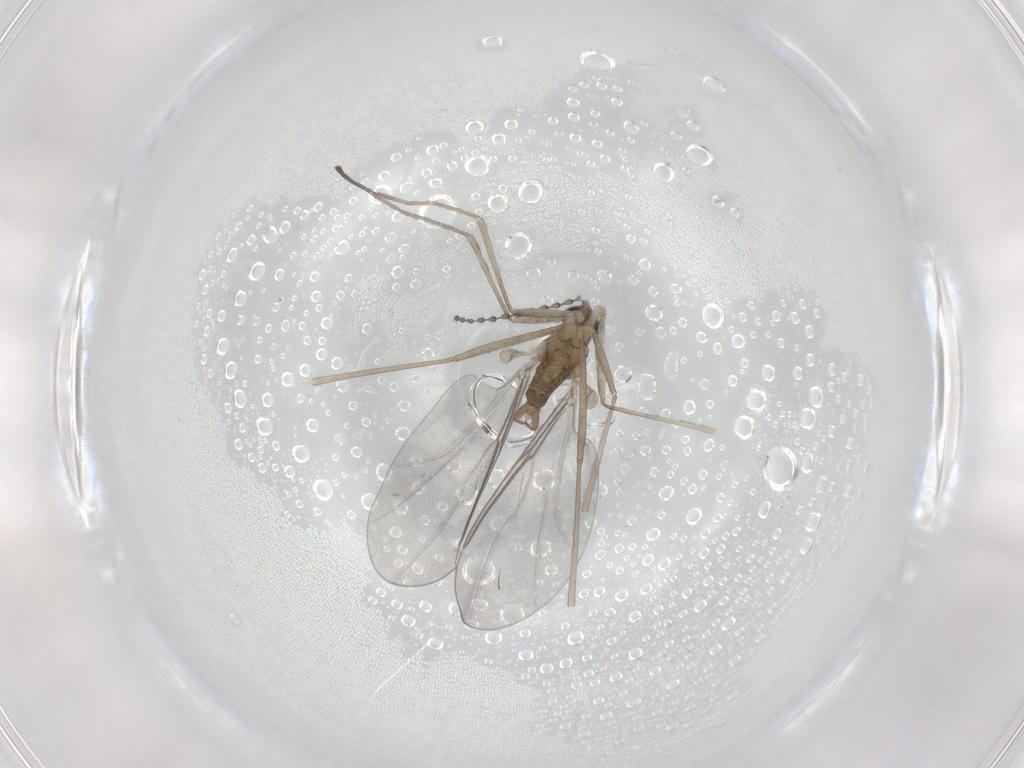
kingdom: Animalia
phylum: Arthropoda
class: Insecta
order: Diptera
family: Cecidomyiidae
